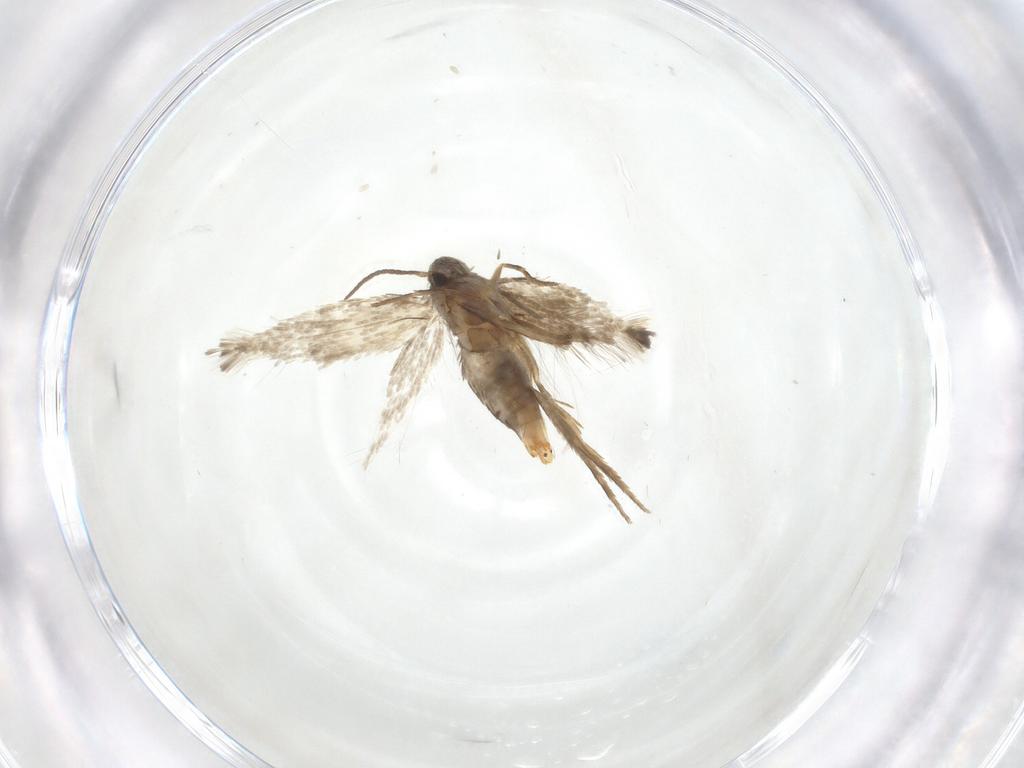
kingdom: Animalia
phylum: Arthropoda
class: Insecta
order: Lepidoptera
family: Heliozelidae
